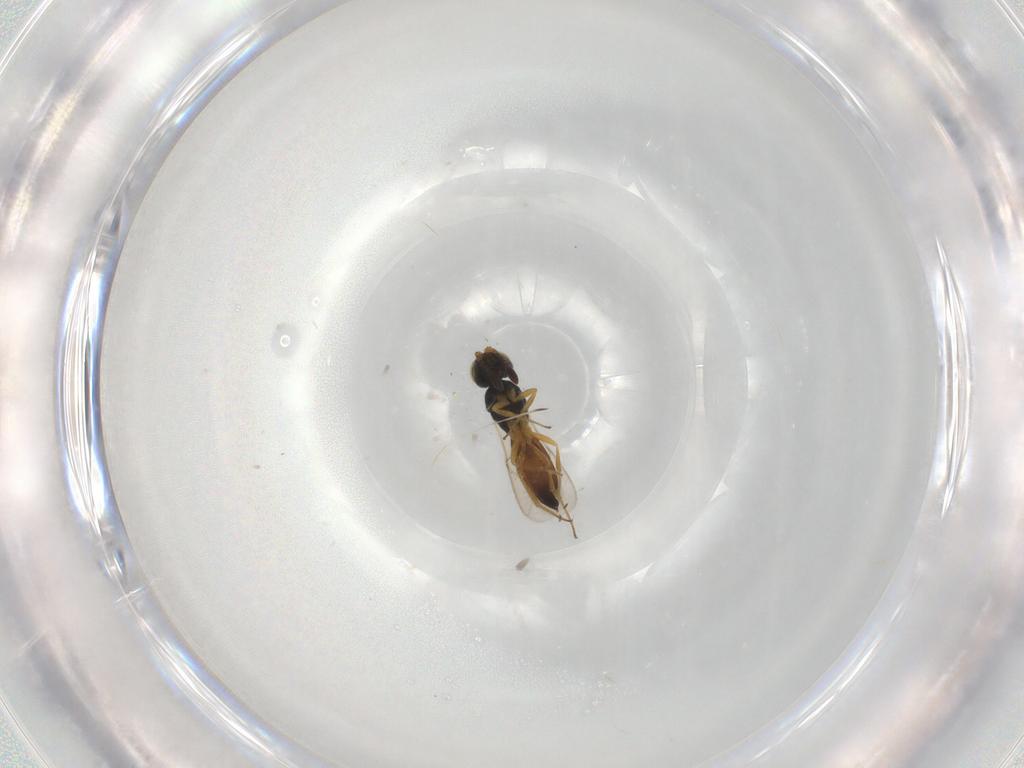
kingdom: Animalia
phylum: Arthropoda
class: Insecta
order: Hymenoptera
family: Scelionidae
